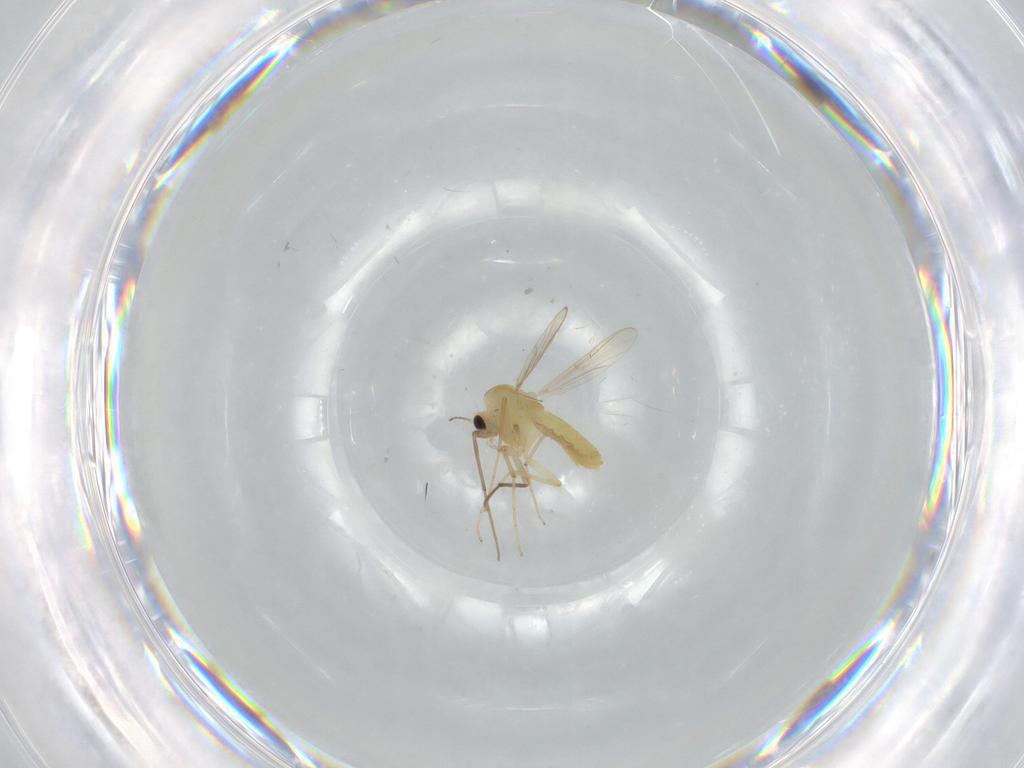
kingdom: Animalia
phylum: Arthropoda
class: Insecta
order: Diptera
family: Chironomidae
